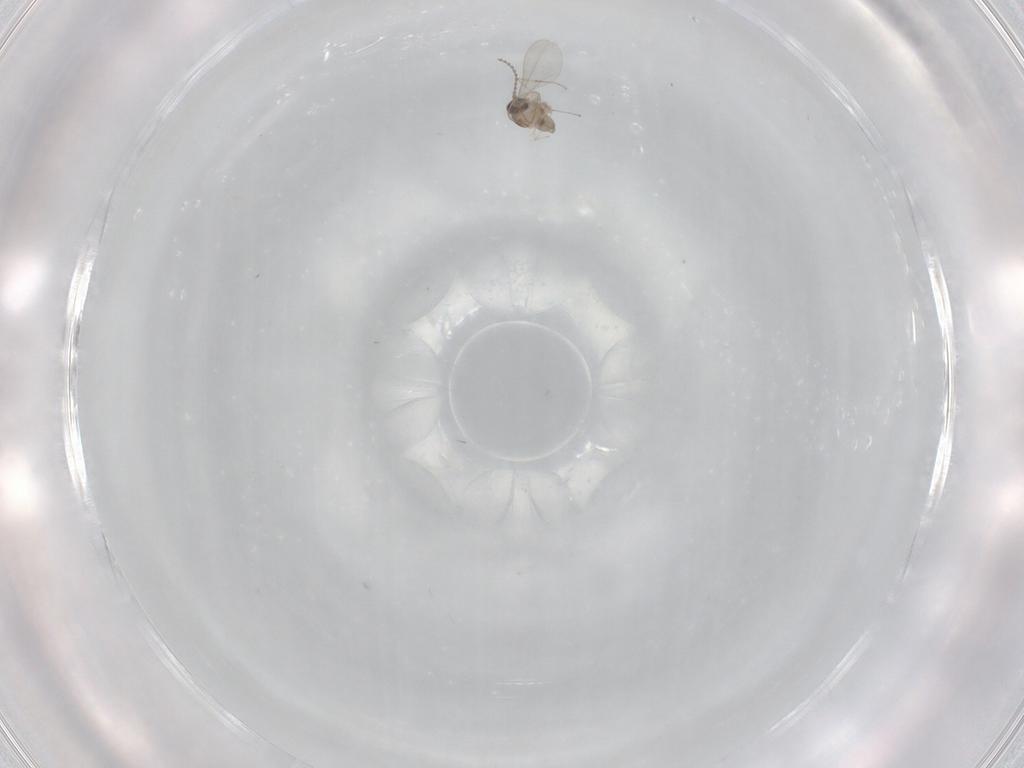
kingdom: Animalia
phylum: Arthropoda
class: Insecta
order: Diptera
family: Cecidomyiidae
